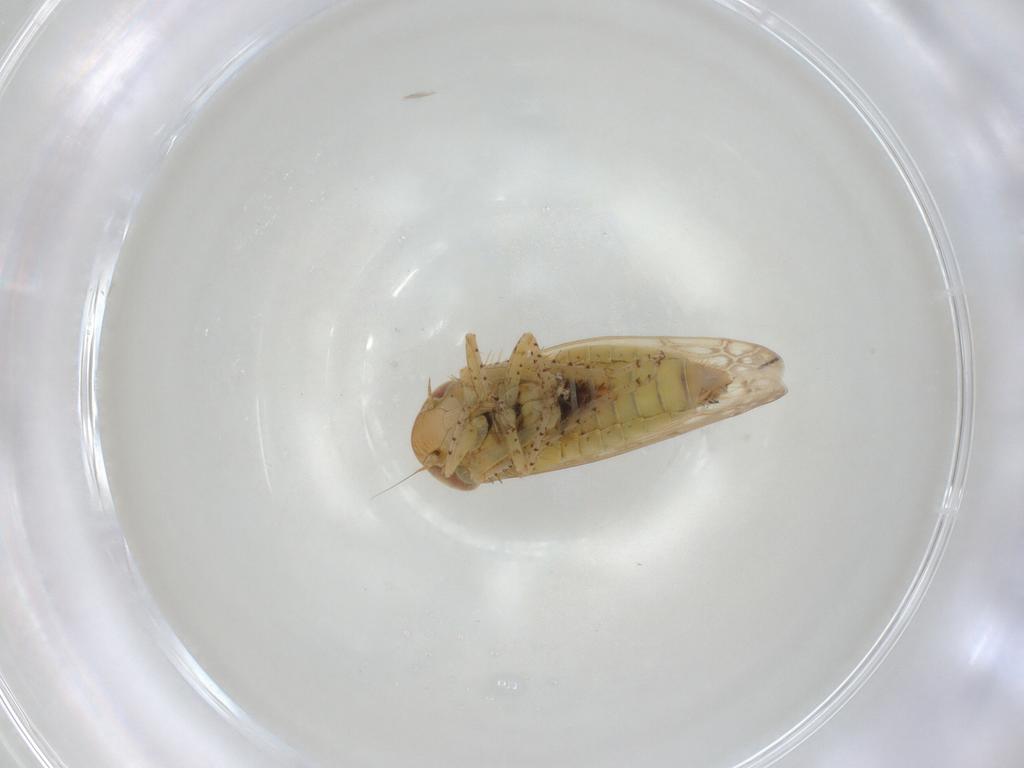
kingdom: Animalia
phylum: Arthropoda
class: Insecta
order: Hemiptera
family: Cicadellidae
